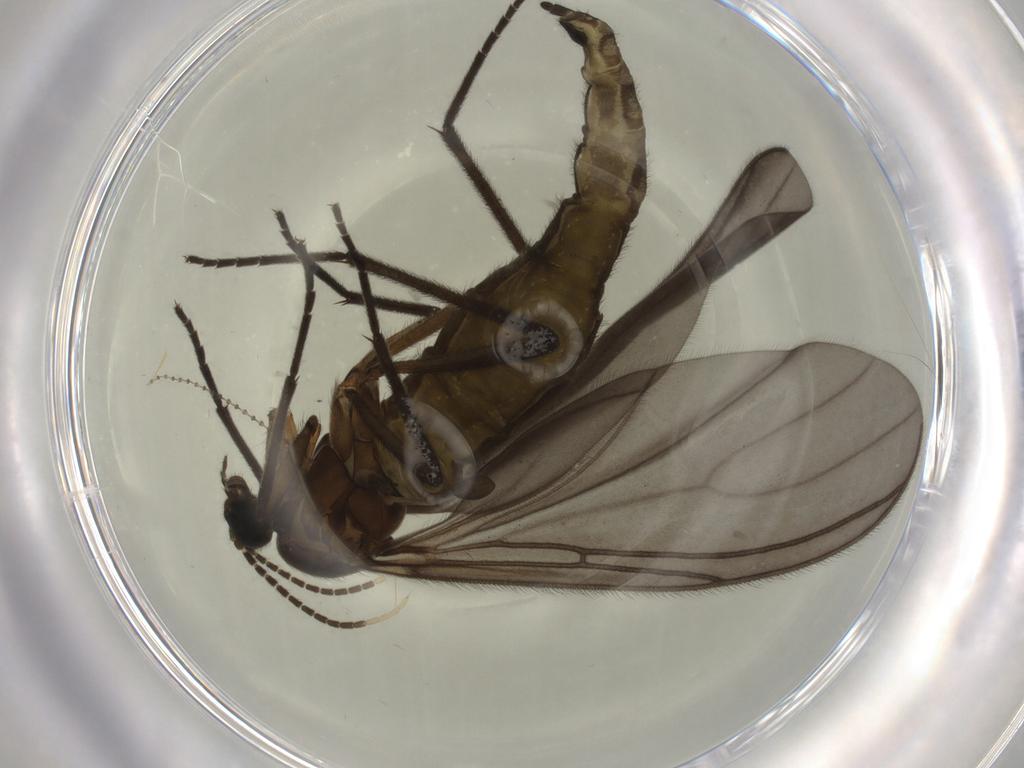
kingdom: Animalia
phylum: Arthropoda
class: Insecta
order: Diptera
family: Sciaridae
